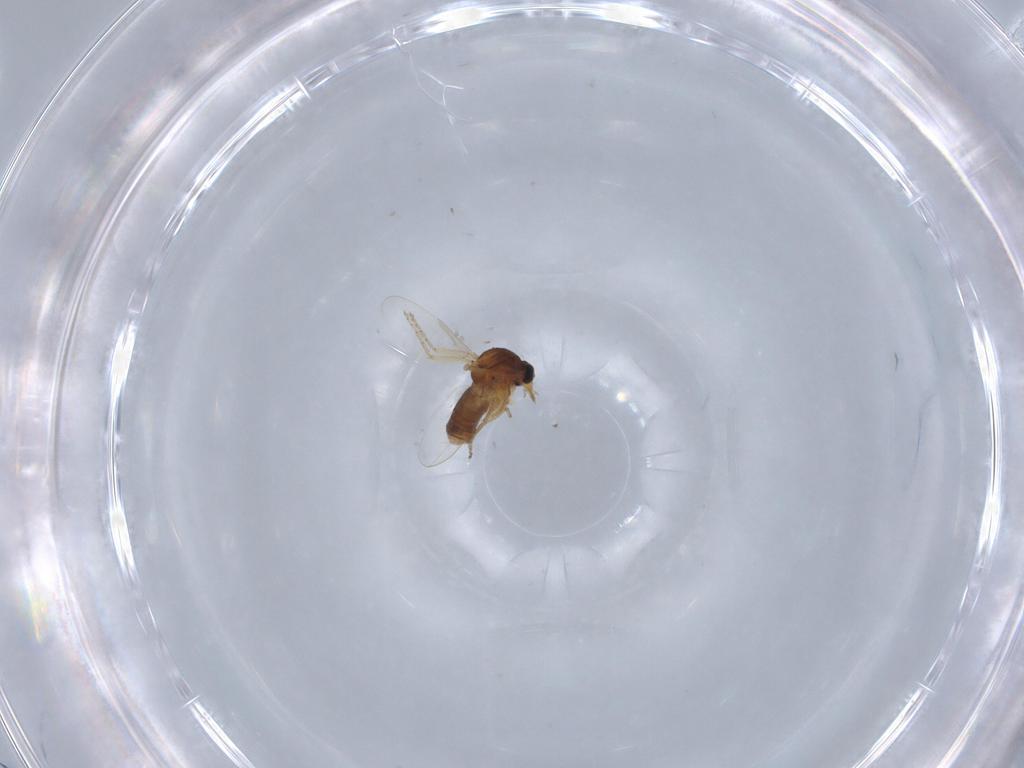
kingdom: Animalia
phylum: Arthropoda
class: Insecta
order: Diptera
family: Ceratopogonidae
